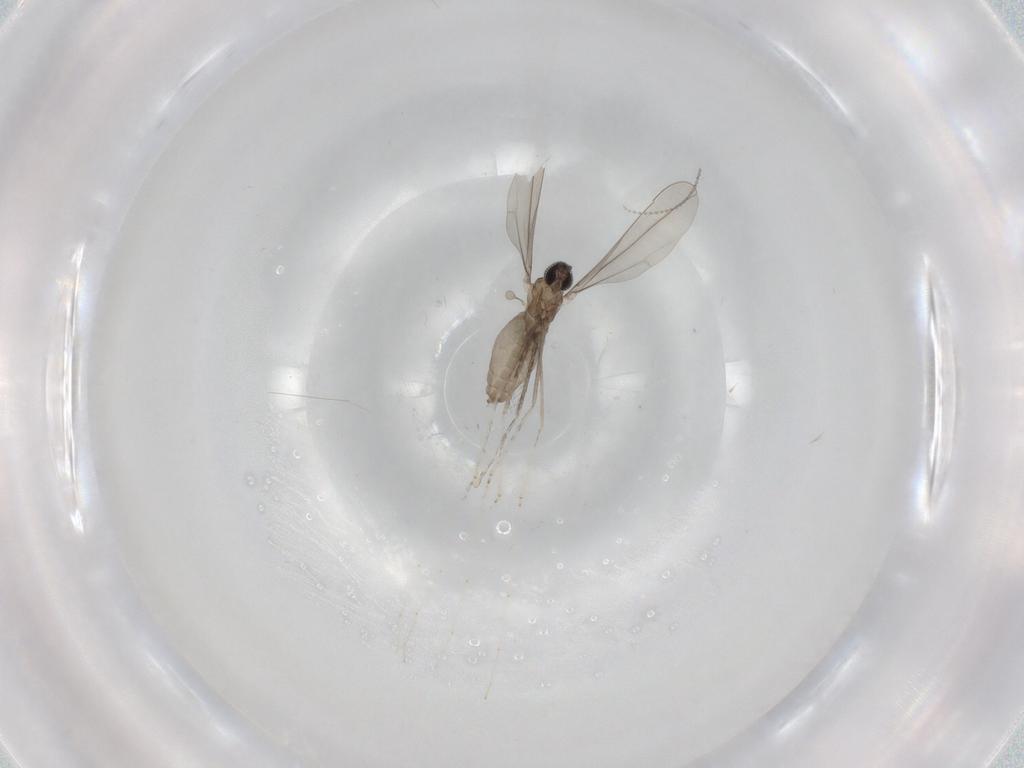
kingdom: Animalia
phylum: Arthropoda
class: Insecta
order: Diptera
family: Cecidomyiidae
